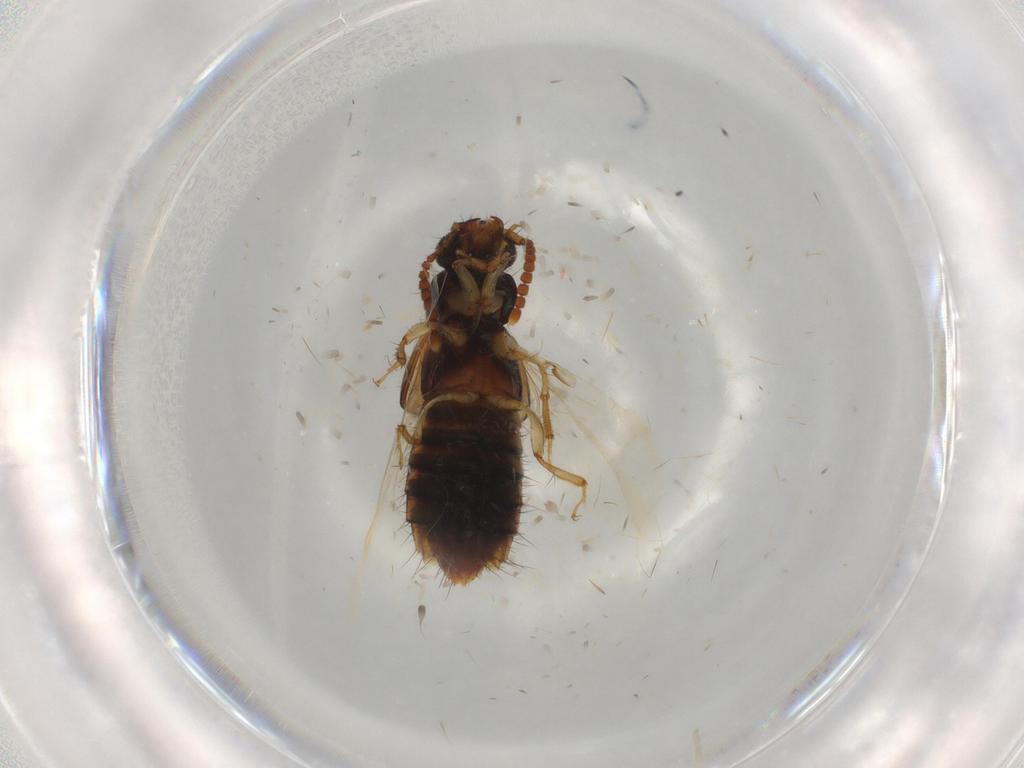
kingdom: Animalia
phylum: Arthropoda
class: Insecta
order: Coleoptera
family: Staphylinidae
